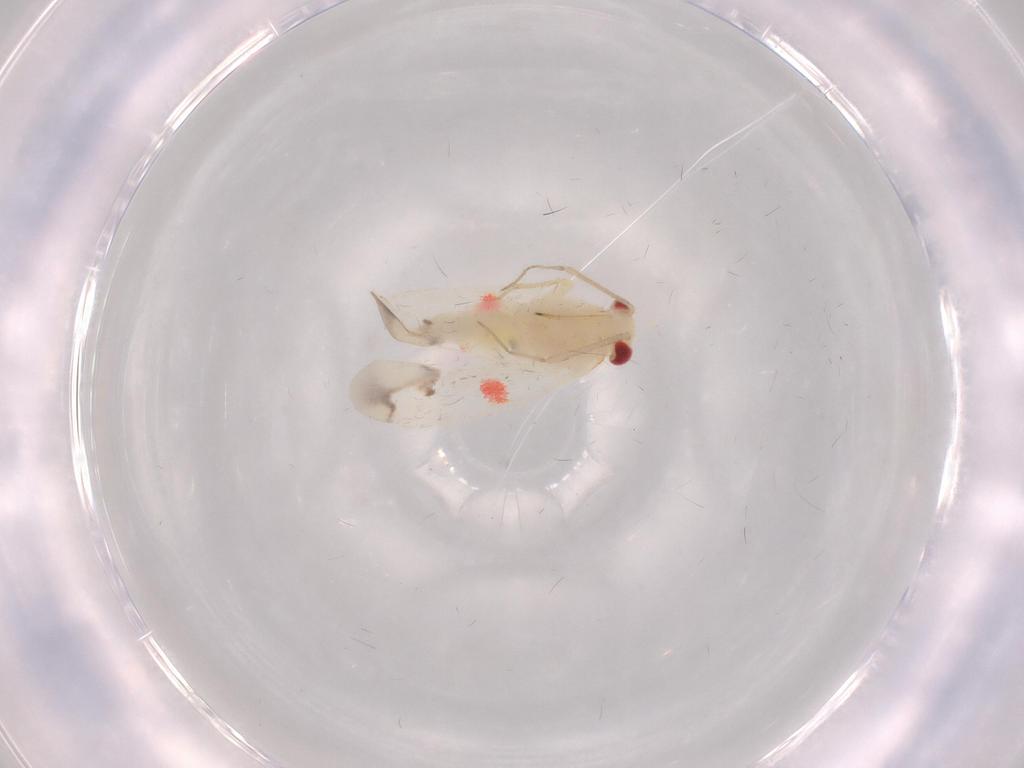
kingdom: Animalia
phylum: Arthropoda
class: Insecta
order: Hemiptera
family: Miridae
